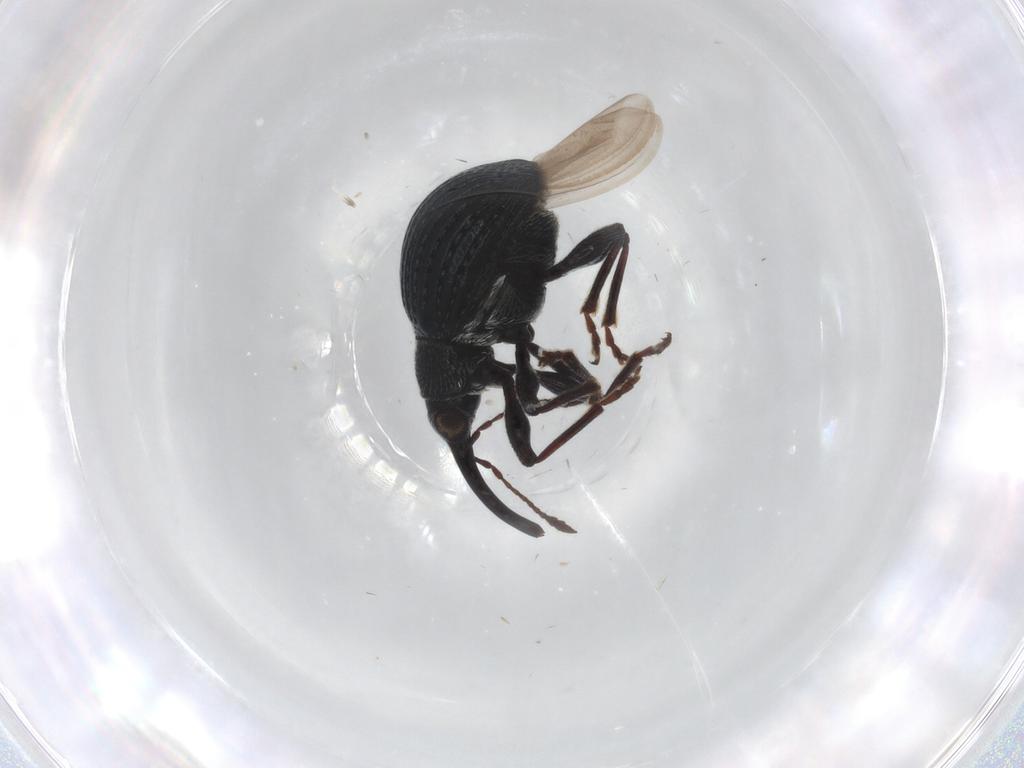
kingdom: Animalia
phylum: Arthropoda
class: Insecta
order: Coleoptera
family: Brentidae
